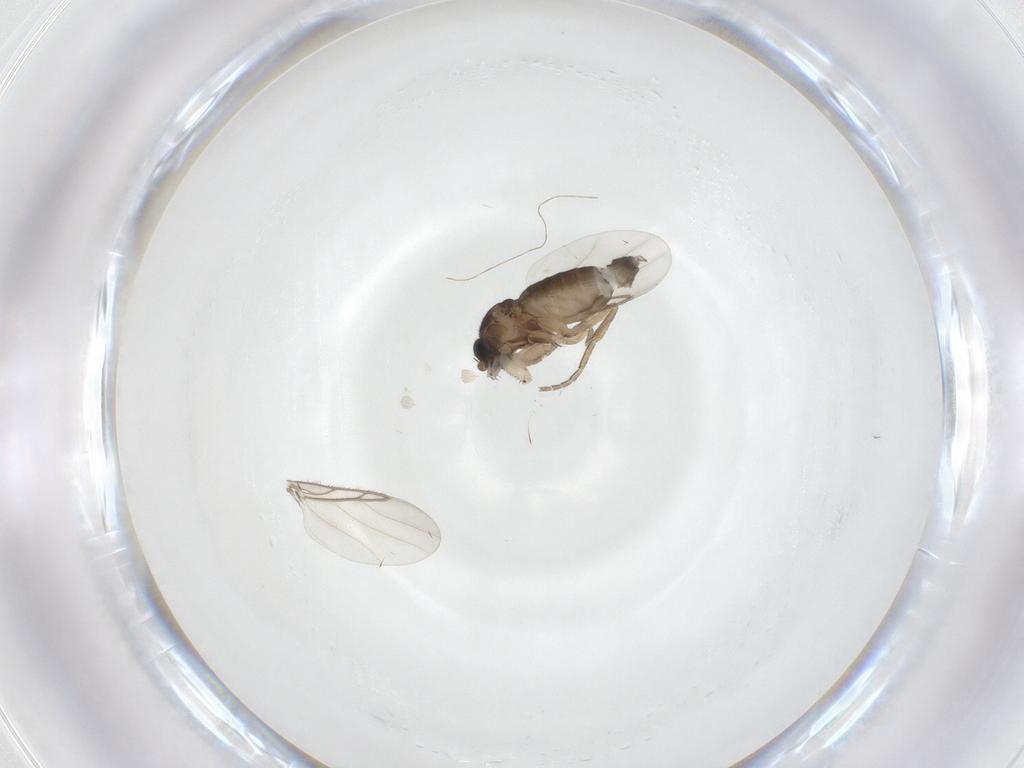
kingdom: Animalia
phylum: Arthropoda
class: Insecta
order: Diptera
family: Phoridae
